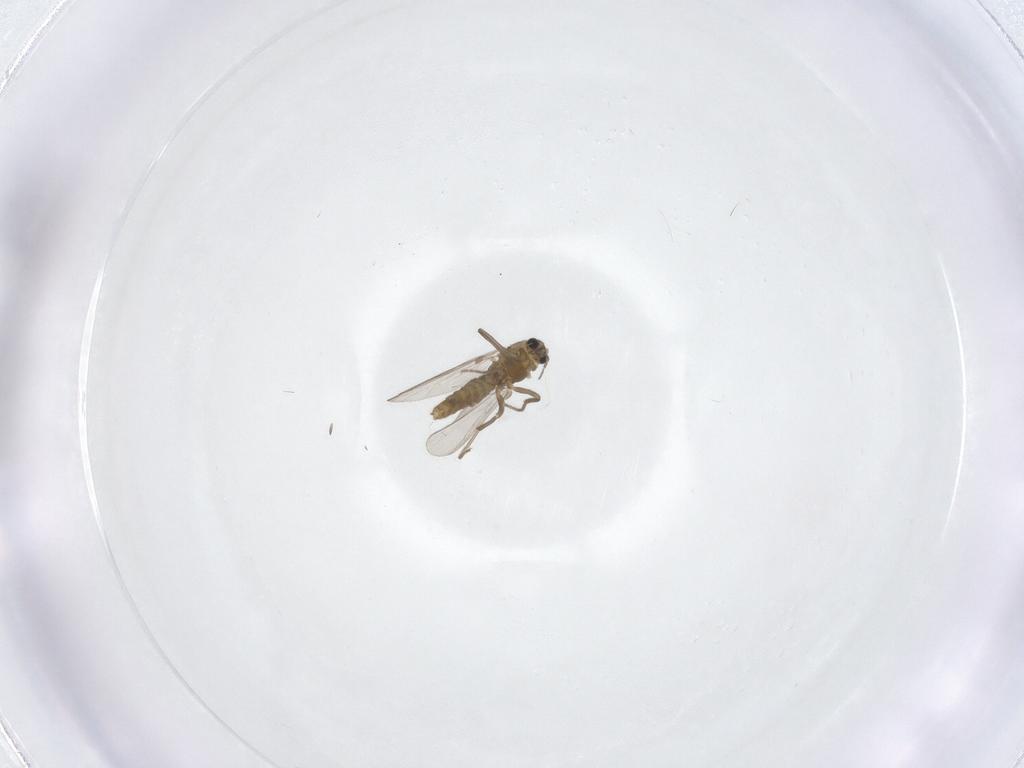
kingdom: Animalia
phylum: Arthropoda
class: Insecta
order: Diptera
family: Chironomidae
